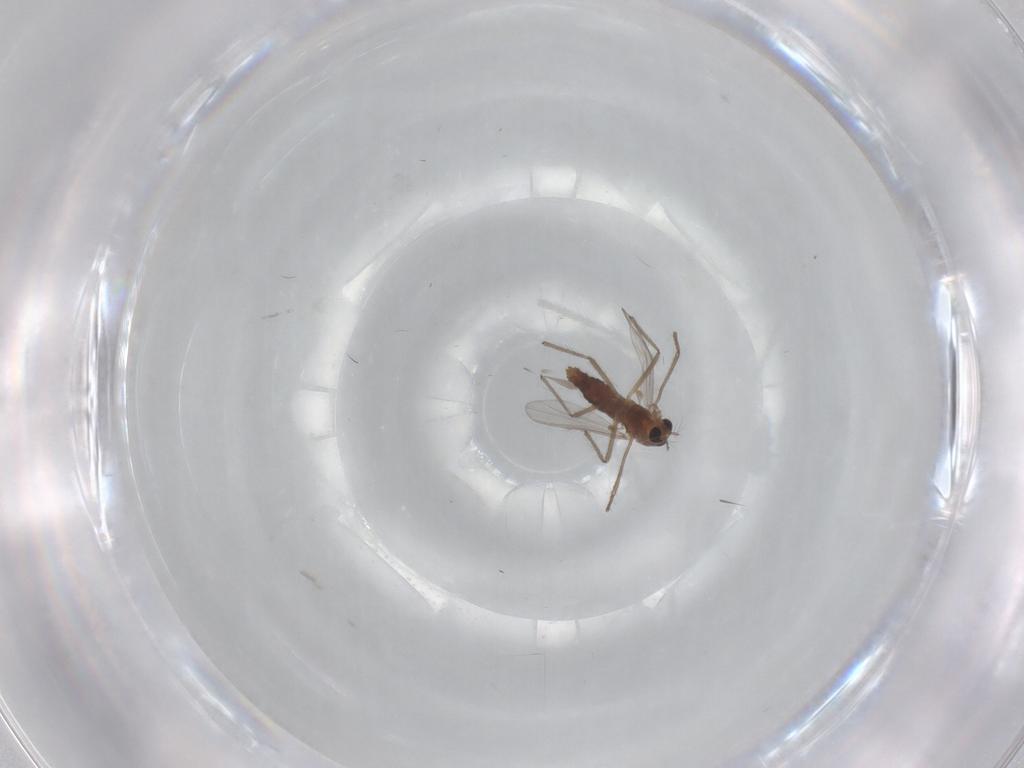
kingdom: Animalia
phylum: Arthropoda
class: Insecta
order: Diptera
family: Chironomidae
